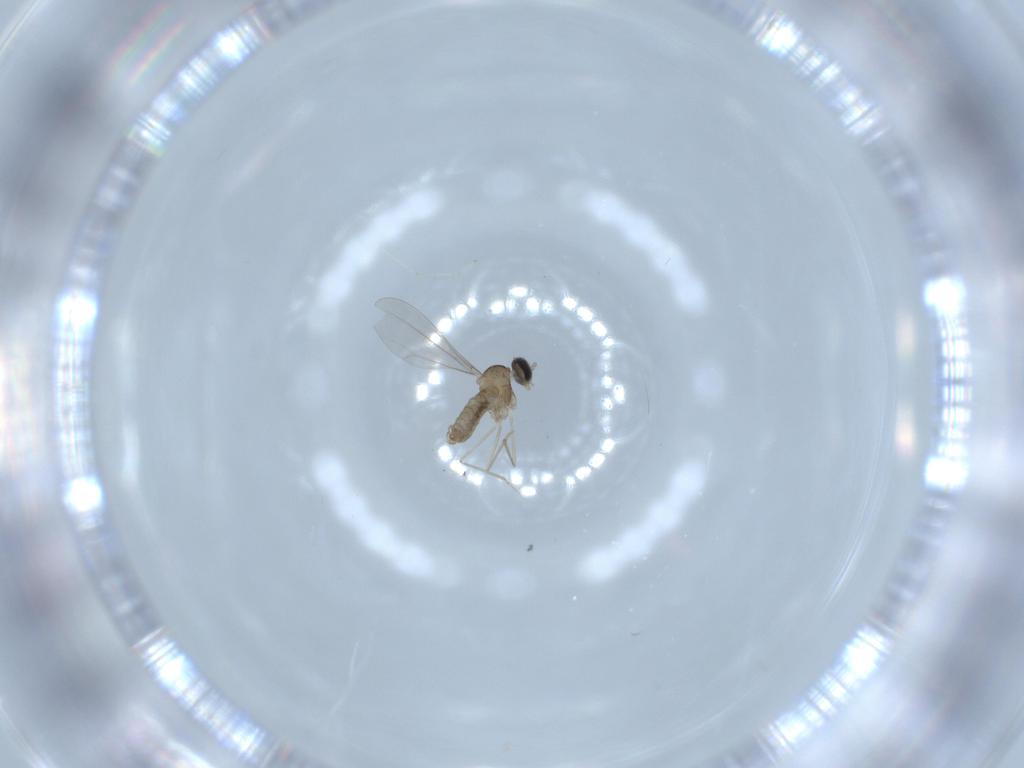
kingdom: Animalia
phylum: Arthropoda
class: Insecta
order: Diptera
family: Cecidomyiidae
